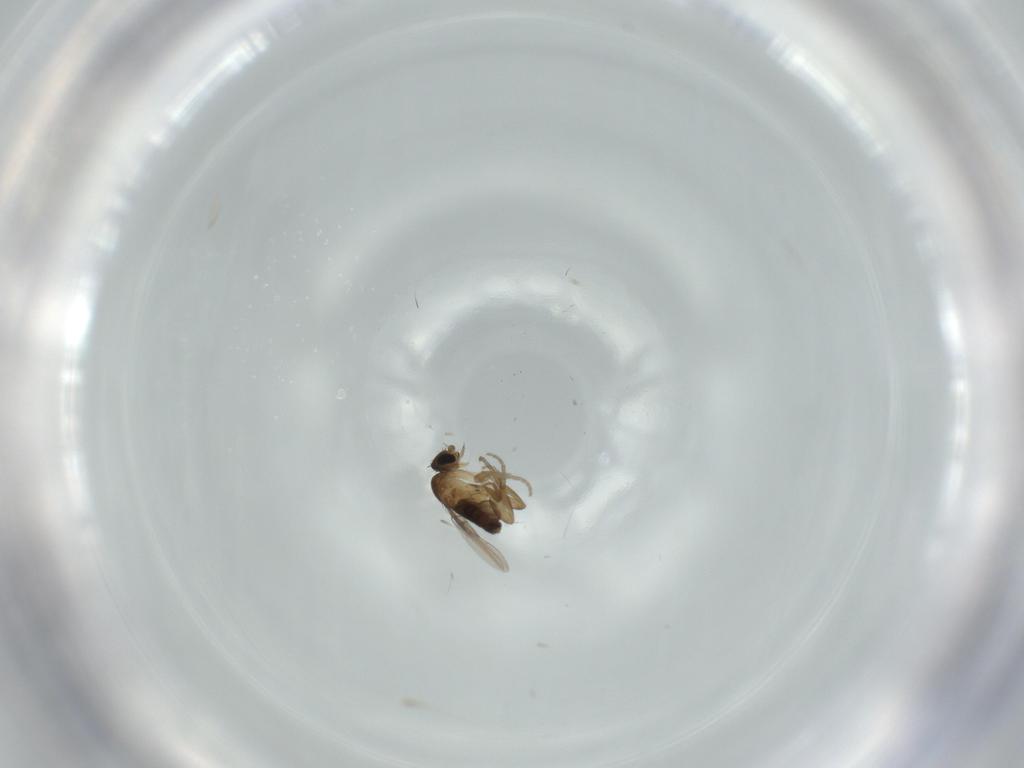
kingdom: Animalia
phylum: Arthropoda
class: Insecta
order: Diptera
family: Phoridae
